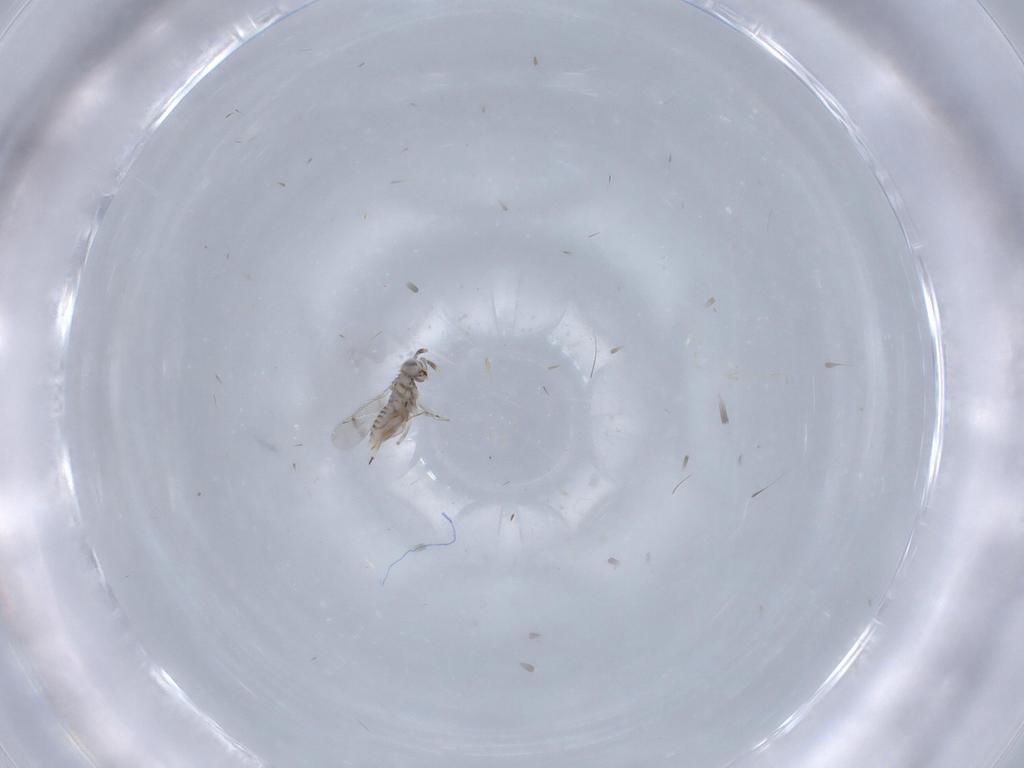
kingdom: Animalia
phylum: Arthropoda
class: Insecta
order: Hymenoptera
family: Aphelinidae
